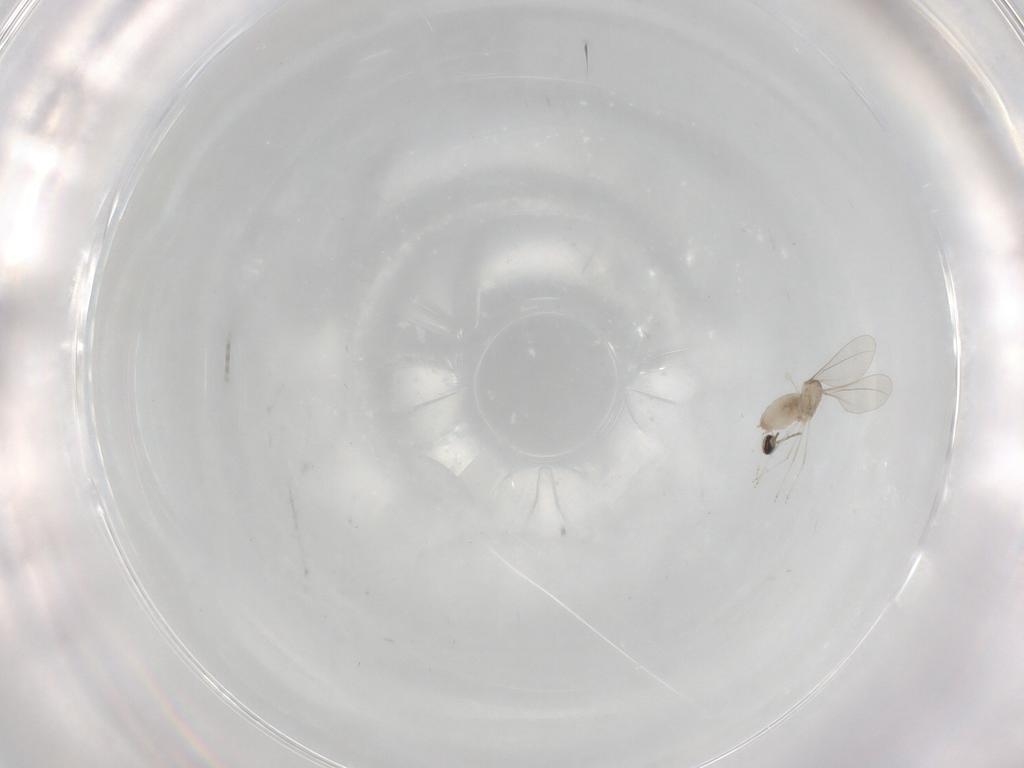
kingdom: Animalia
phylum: Arthropoda
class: Insecta
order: Diptera
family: Cecidomyiidae
